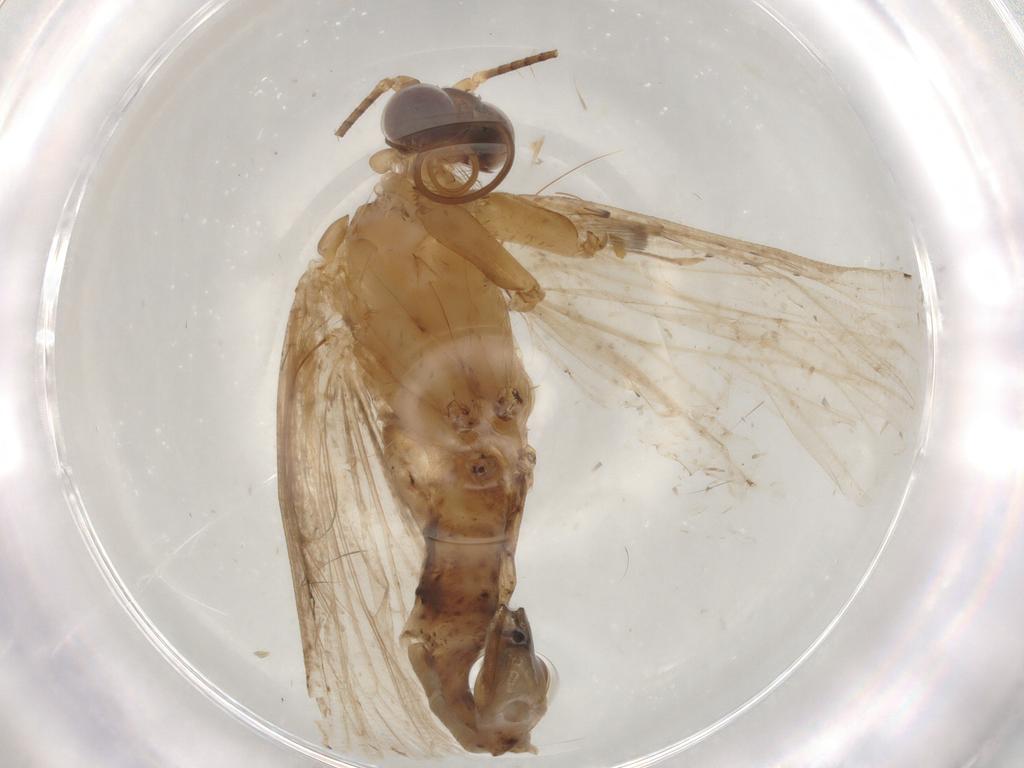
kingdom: Animalia
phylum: Arthropoda
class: Insecta
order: Lepidoptera
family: Erebidae
